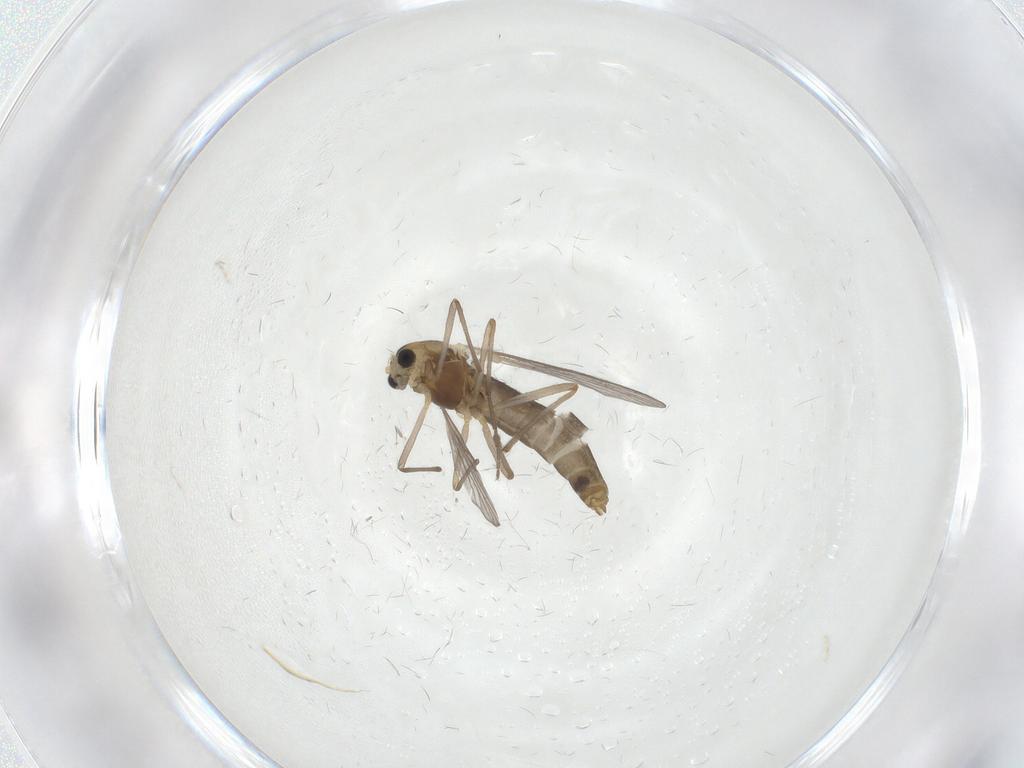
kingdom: Animalia
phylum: Arthropoda
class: Insecta
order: Diptera
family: Chironomidae
